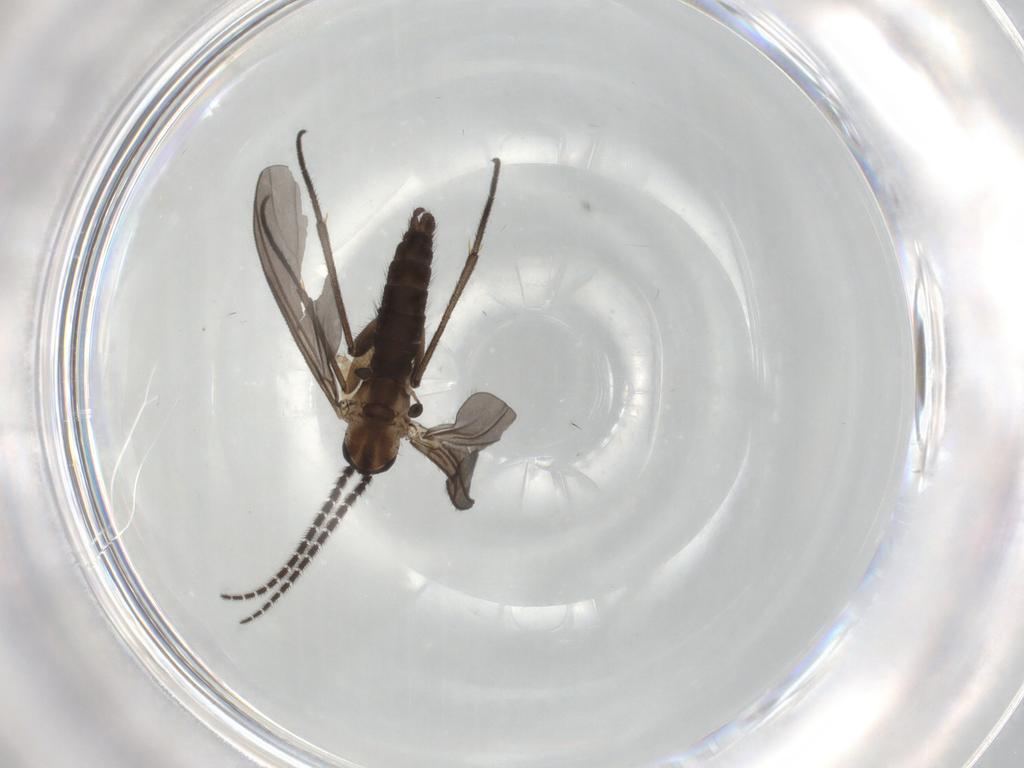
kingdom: Animalia
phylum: Arthropoda
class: Insecta
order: Diptera
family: Sciaridae
